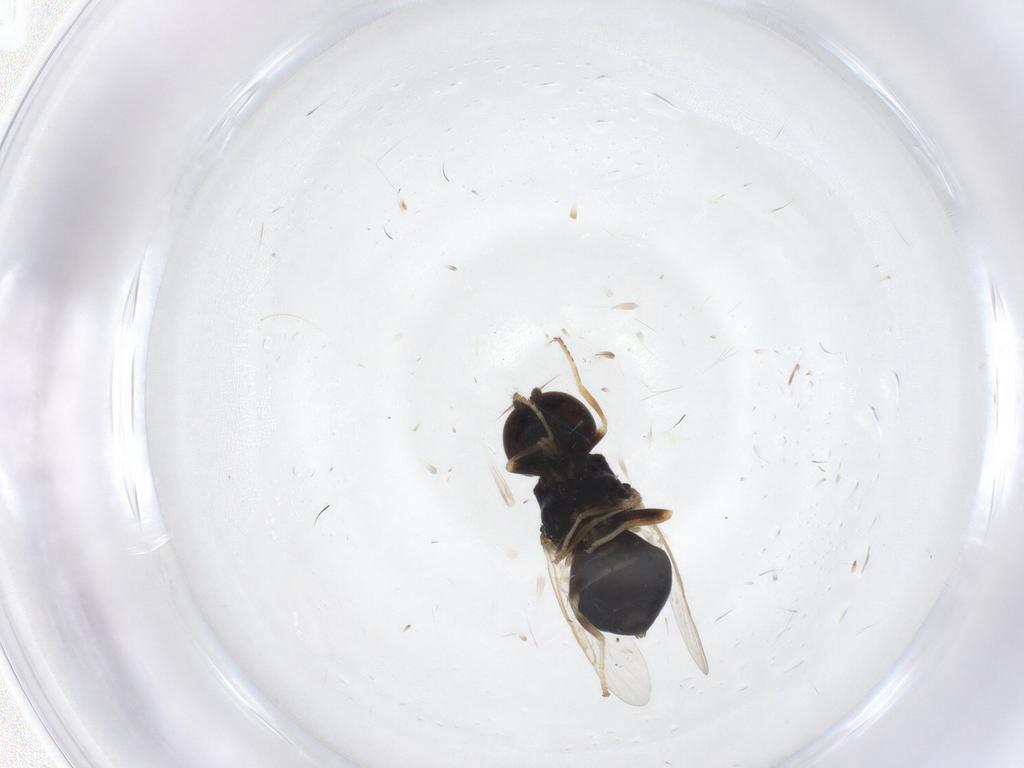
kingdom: Animalia
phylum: Arthropoda
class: Insecta
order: Diptera
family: Stratiomyidae
